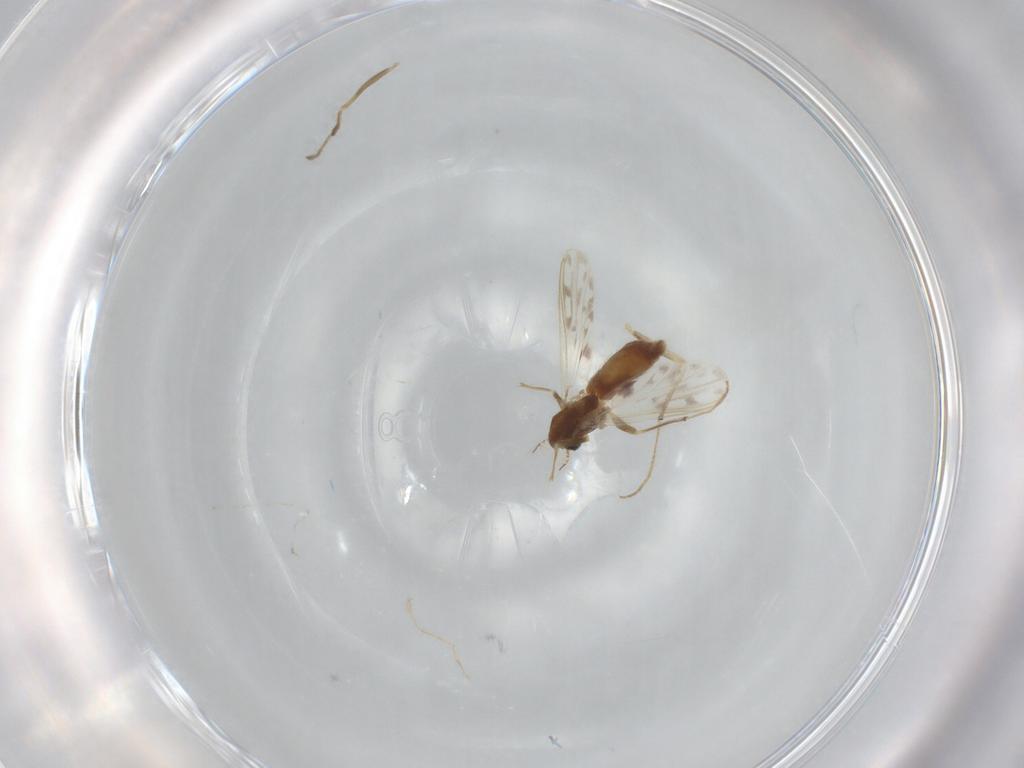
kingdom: Animalia
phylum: Arthropoda
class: Insecta
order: Diptera
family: Chironomidae
